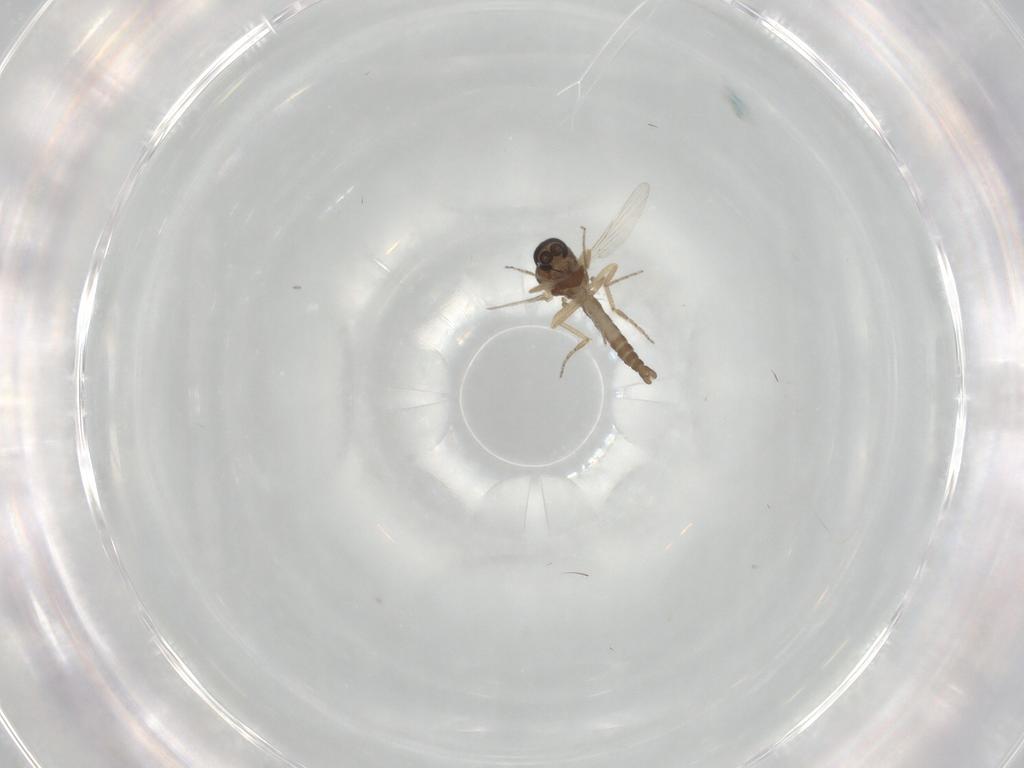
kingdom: Animalia
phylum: Arthropoda
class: Insecta
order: Diptera
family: Ceratopogonidae
